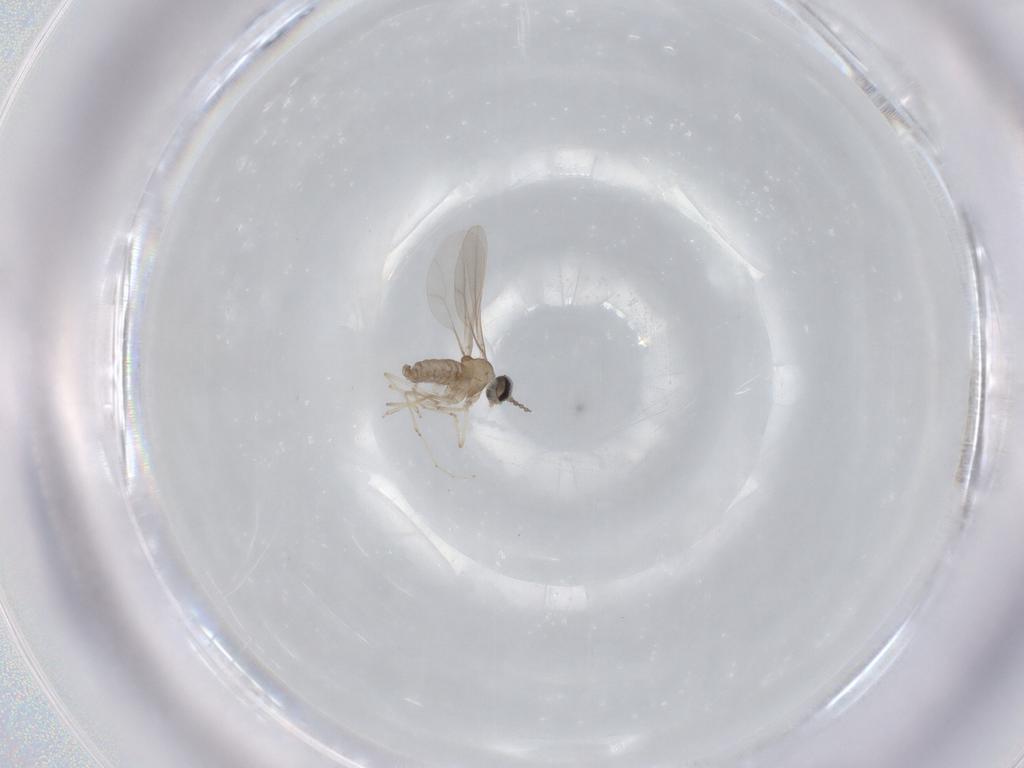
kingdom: Animalia
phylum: Arthropoda
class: Insecta
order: Diptera
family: Cecidomyiidae
